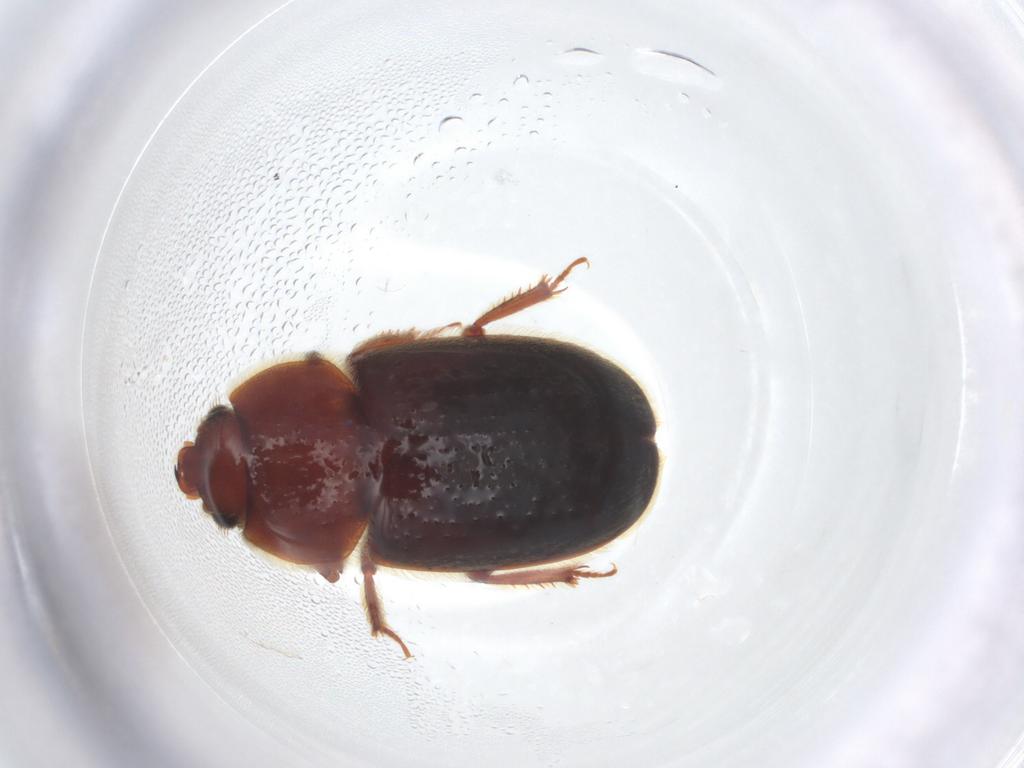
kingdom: Animalia
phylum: Arthropoda
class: Insecta
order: Coleoptera
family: Cantharidae
